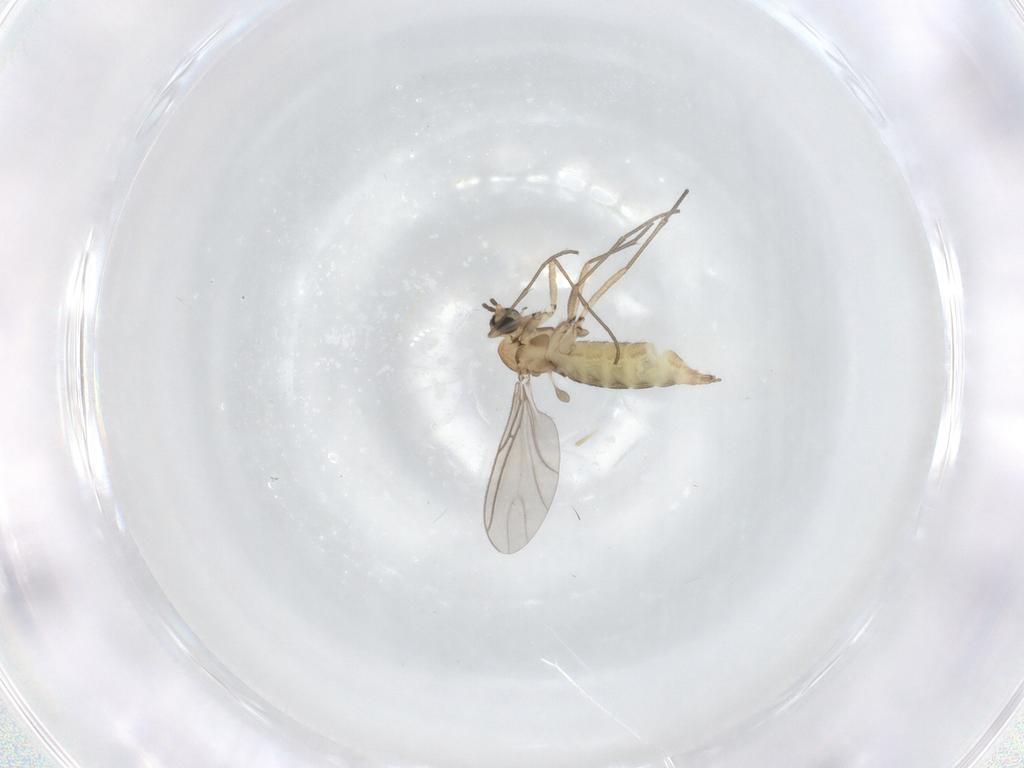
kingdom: Animalia
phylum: Arthropoda
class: Insecta
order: Diptera
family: Sciaridae
